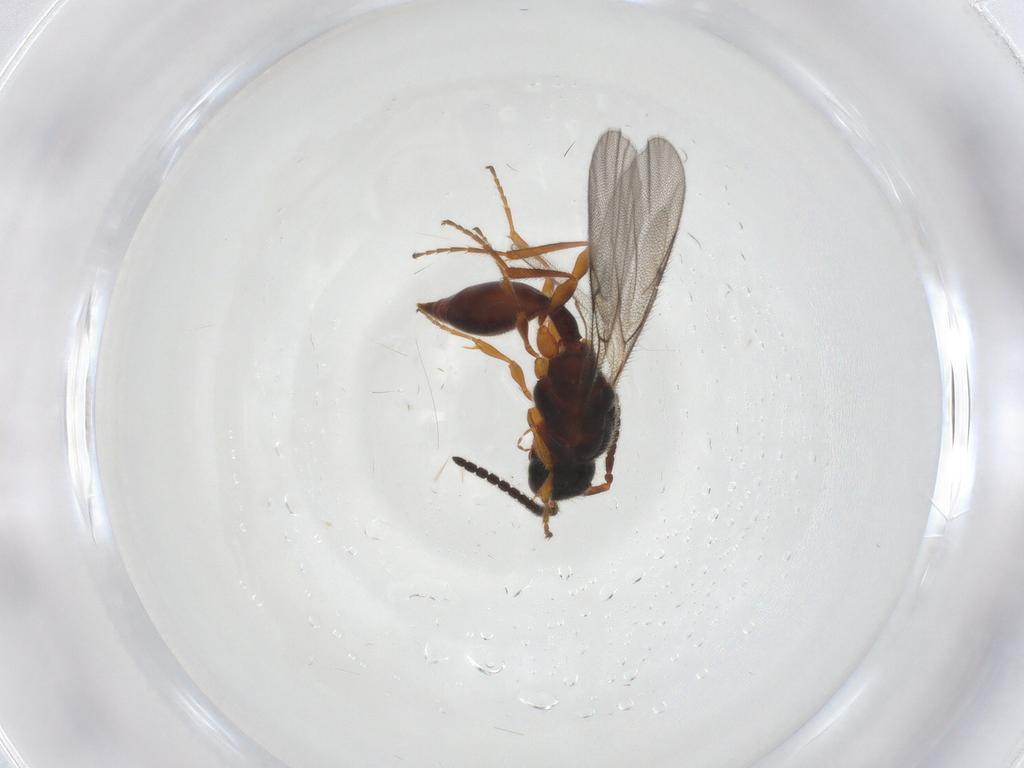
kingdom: Animalia
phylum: Arthropoda
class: Insecta
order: Hymenoptera
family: Diapriidae
